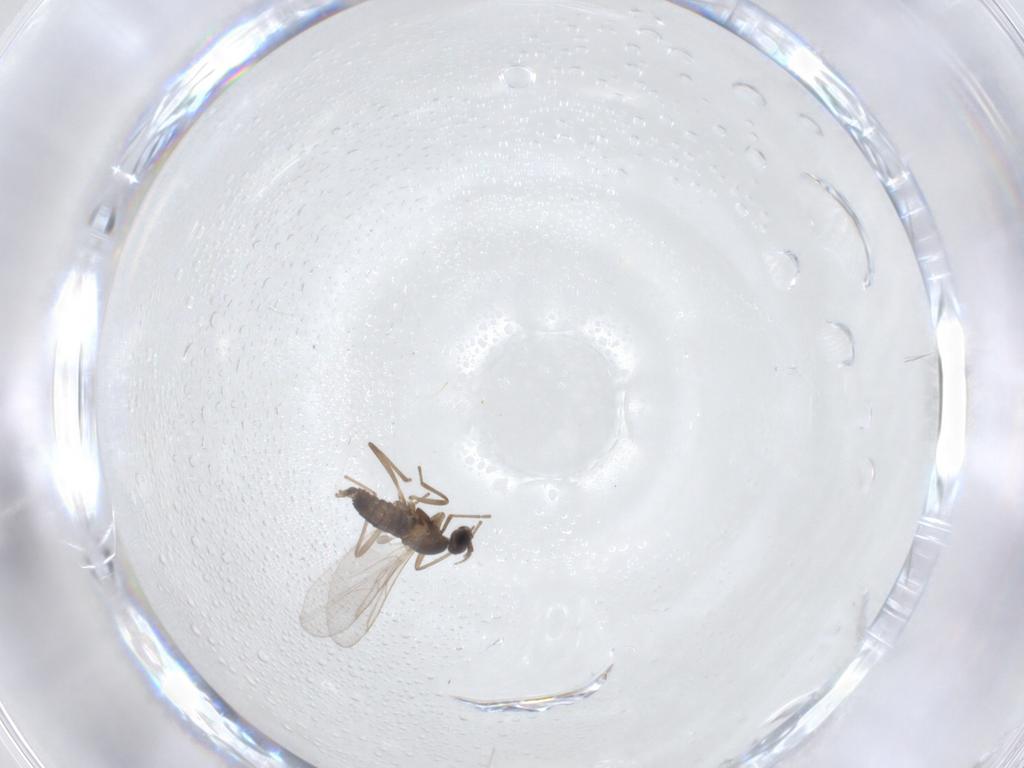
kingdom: Animalia
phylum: Arthropoda
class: Insecta
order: Diptera
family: Cecidomyiidae
